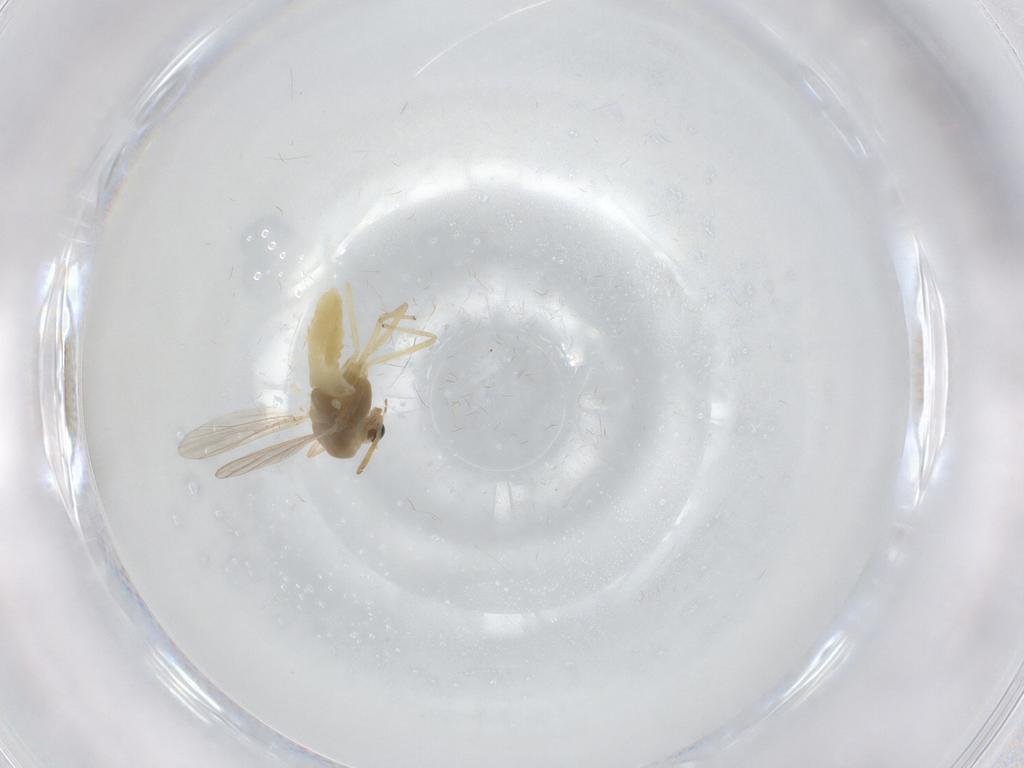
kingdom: Animalia
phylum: Arthropoda
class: Insecta
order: Diptera
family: Chironomidae
